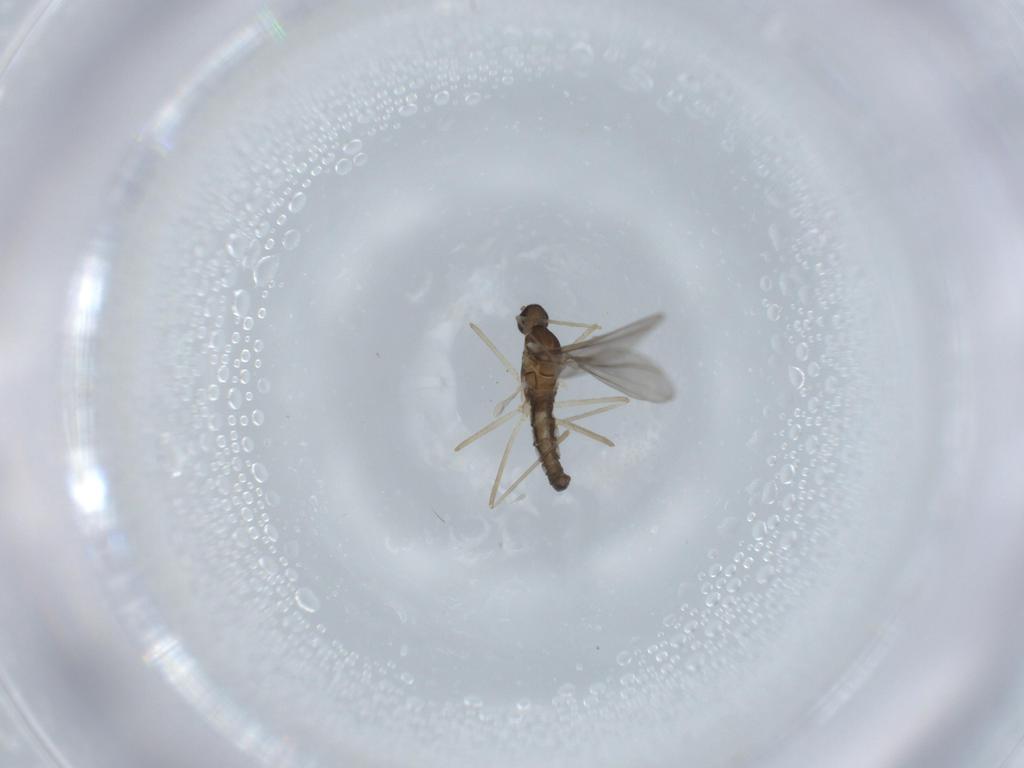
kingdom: Animalia
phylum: Arthropoda
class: Insecta
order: Diptera
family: Cecidomyiidae
